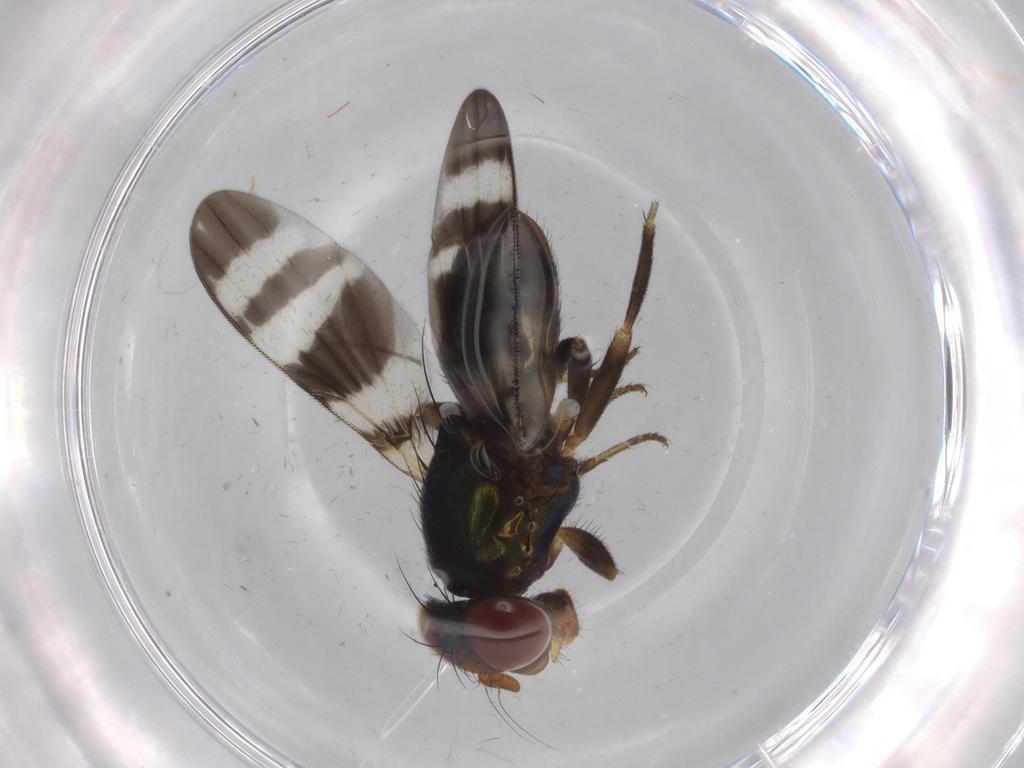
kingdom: Animalia
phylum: Arthropoda
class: Insecta
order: Diptera
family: Ulidiidae
